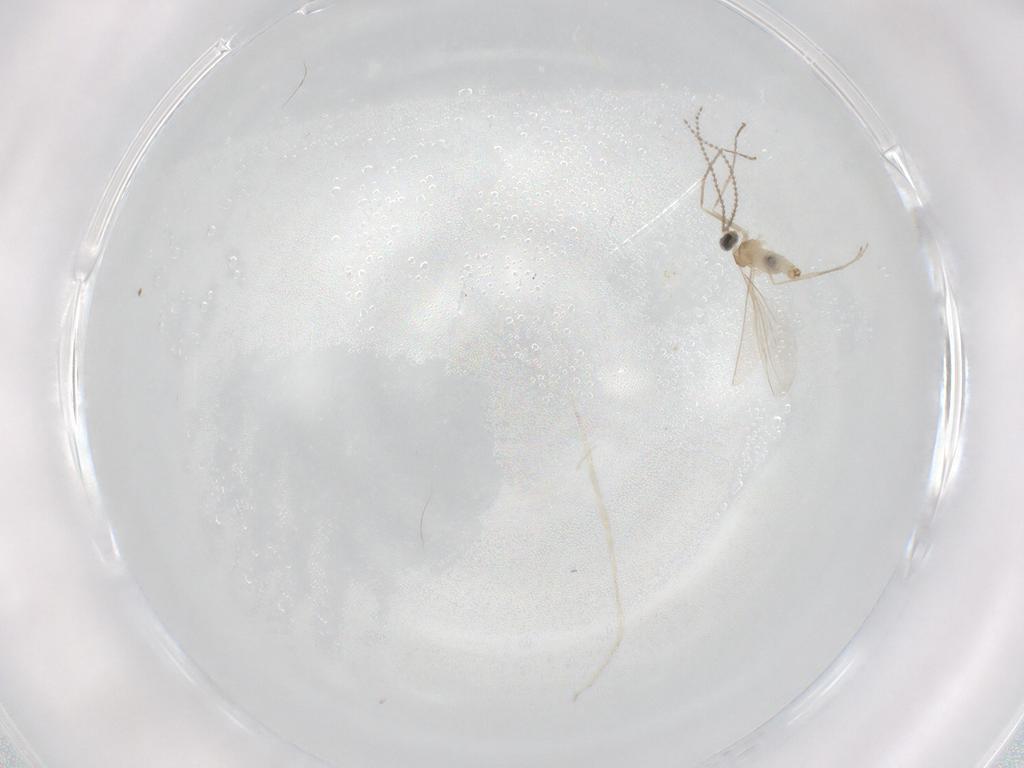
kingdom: Animalia
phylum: Arthropoda
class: Insecta
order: Diptera
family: Cecidomyiidae
